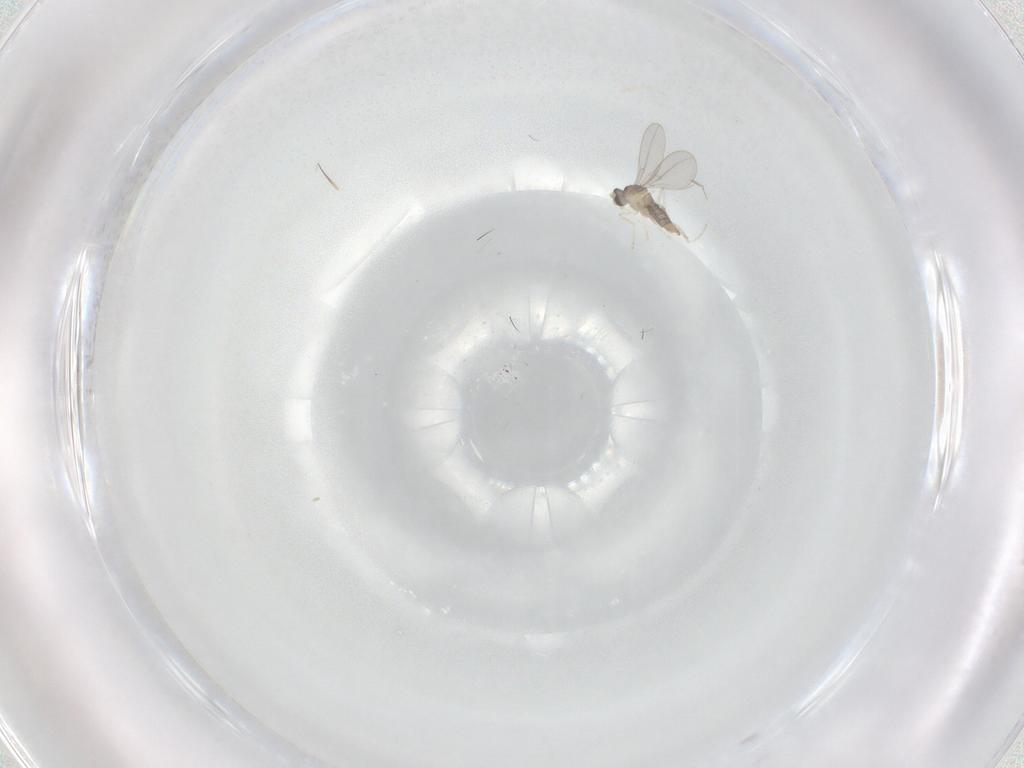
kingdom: Animalia
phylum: Arthropoda
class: Insecta
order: Diptera
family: Cecidomyiidae
